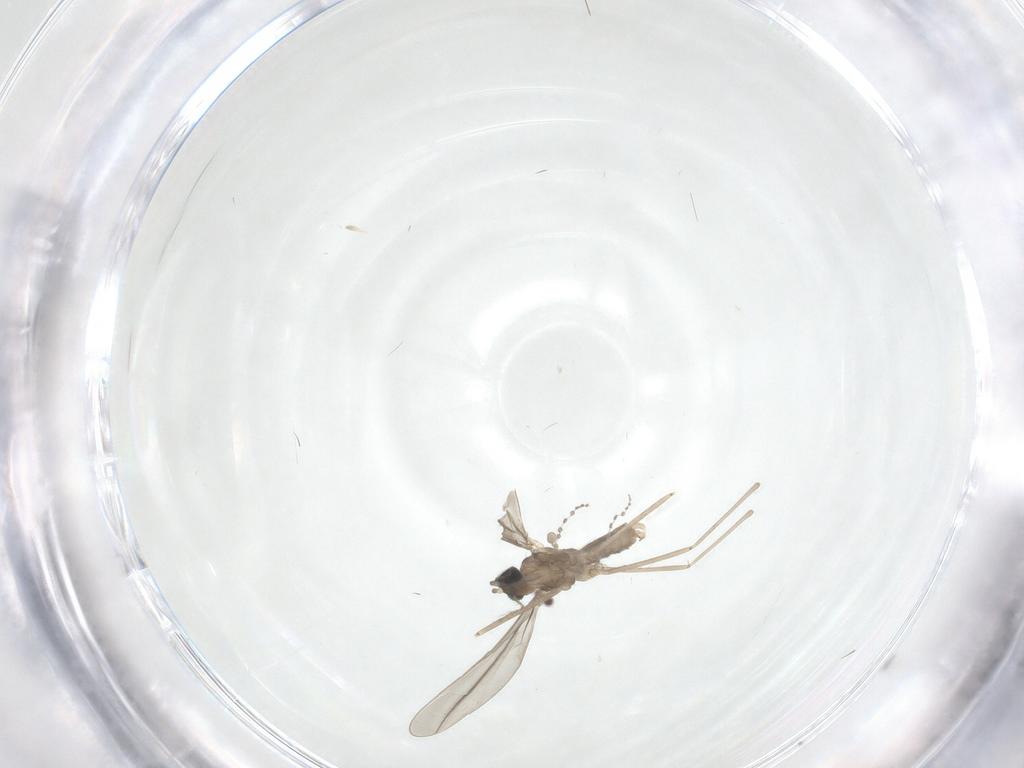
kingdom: Animalia
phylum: Arthropoda
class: Insecta
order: Diptera
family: Cecidomyiidae
